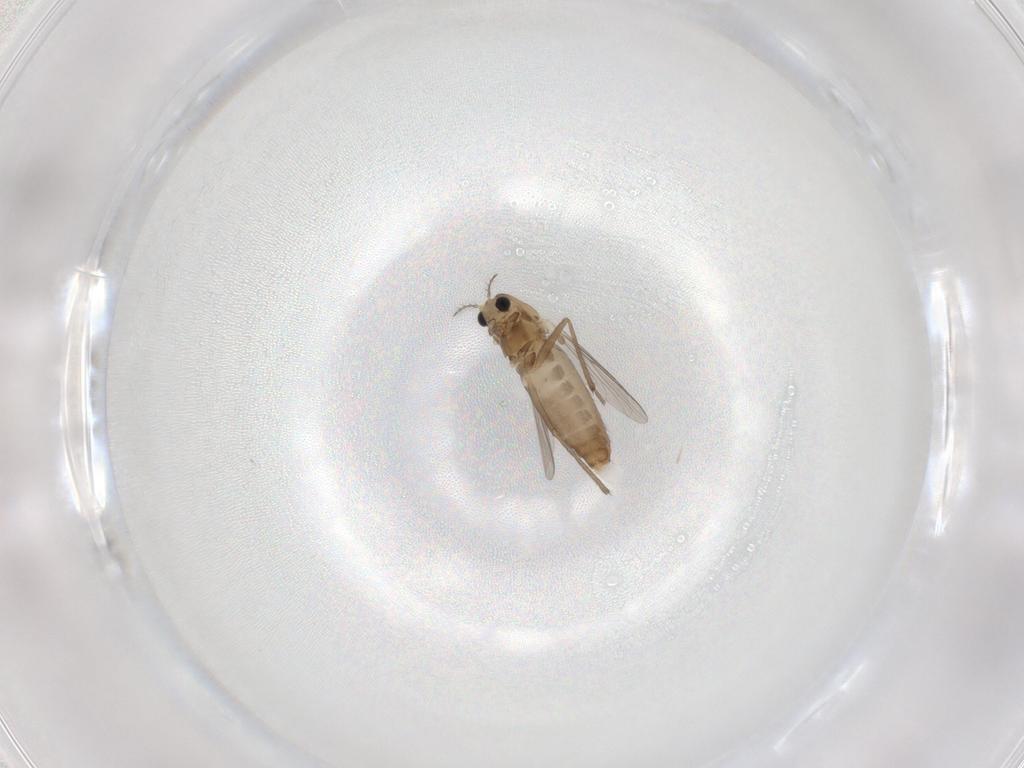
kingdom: Animalia
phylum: Arthropoda
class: Insecta
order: Diptera
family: Chironomidae
